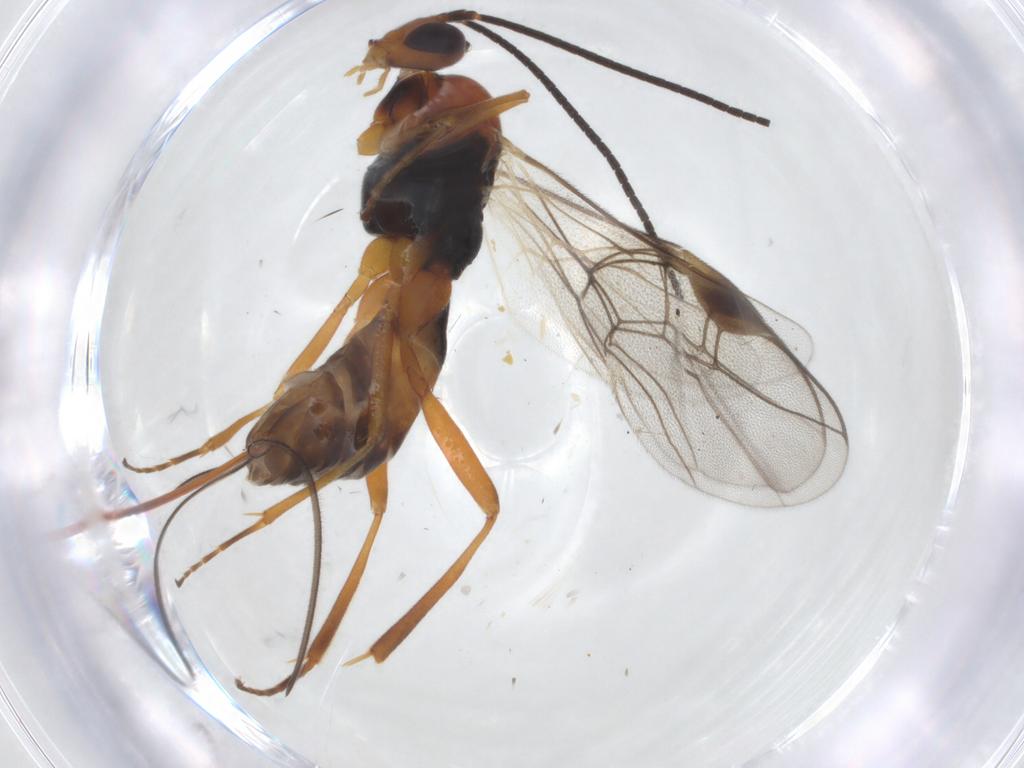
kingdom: Animalia
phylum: Arthropoda
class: Insecta
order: Hymenoptera
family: Braconidae
